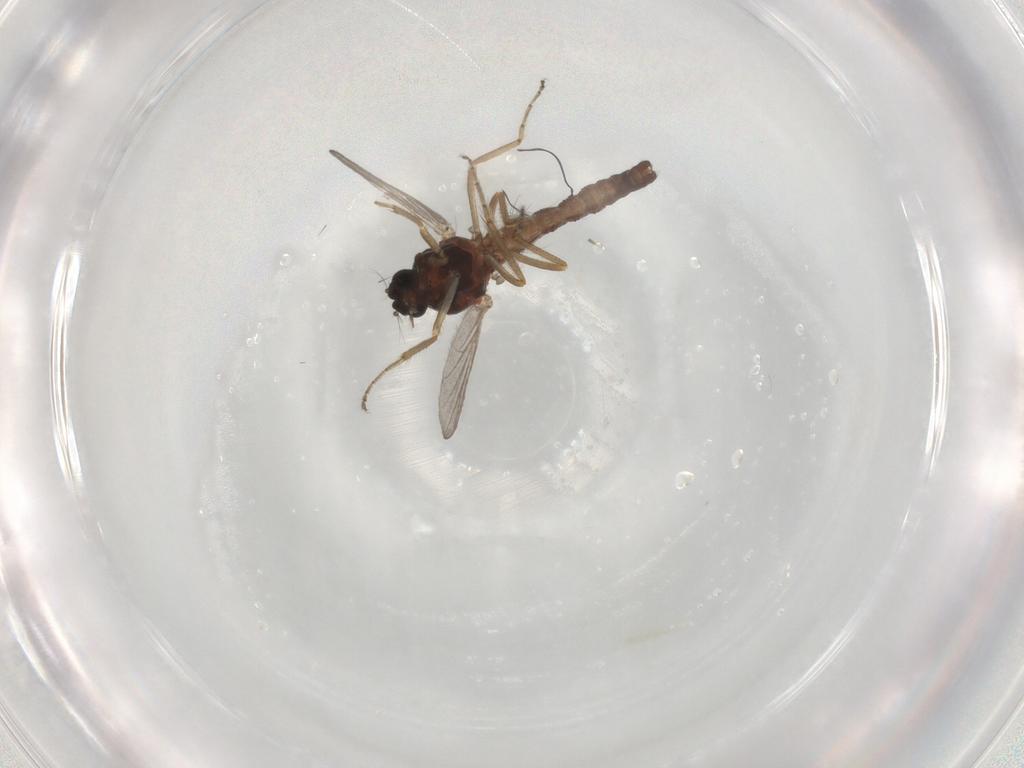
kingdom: Animalia
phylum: Arthropoda
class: Insecta
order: Diptera
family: Ceratopogonidae
